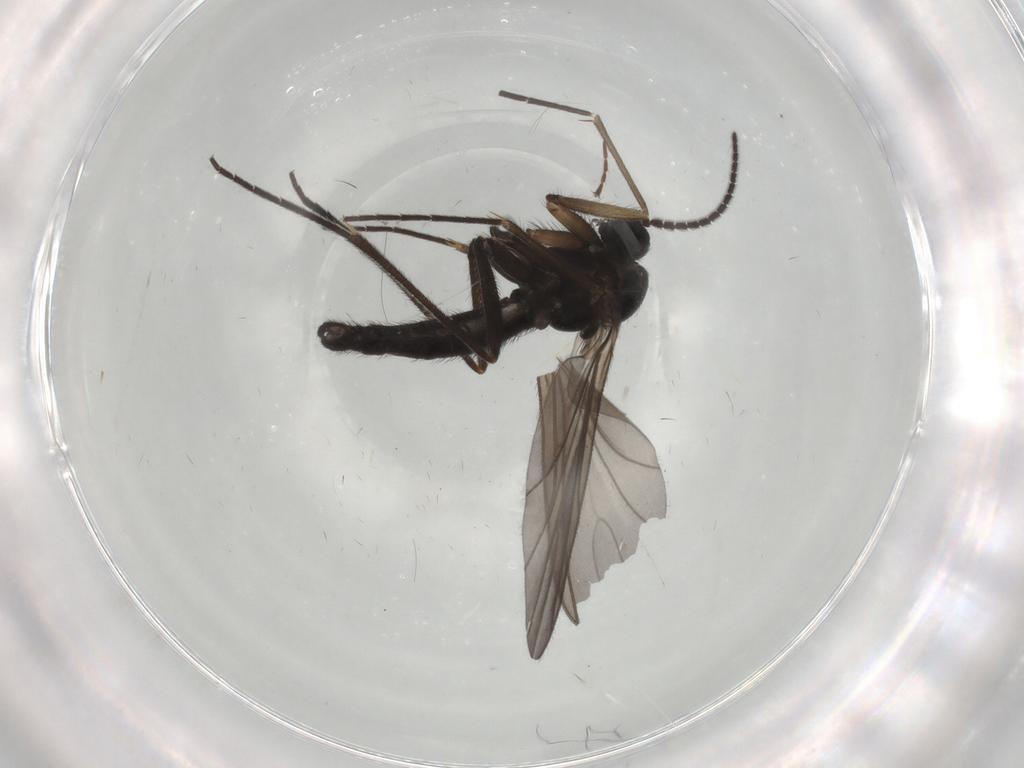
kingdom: Animalia
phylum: Arthropoda
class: Insecta
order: Diptera
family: Sciaridae
